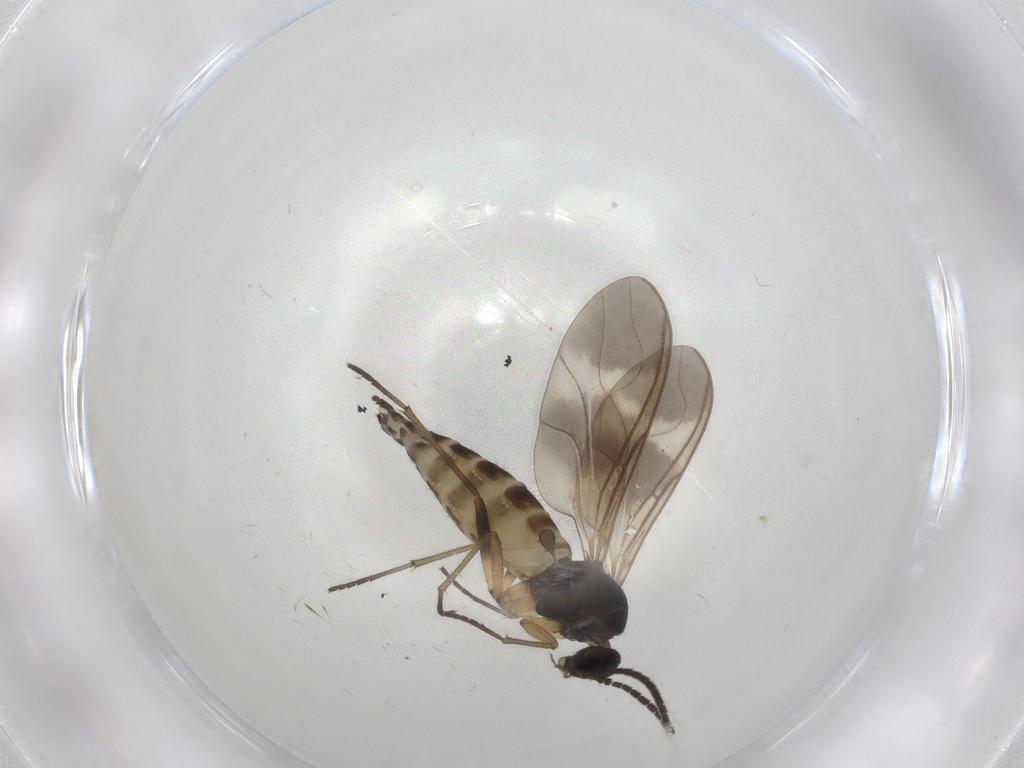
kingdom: Animalia
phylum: Arthropoda
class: Insecta
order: Diptera
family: Sciaridae
